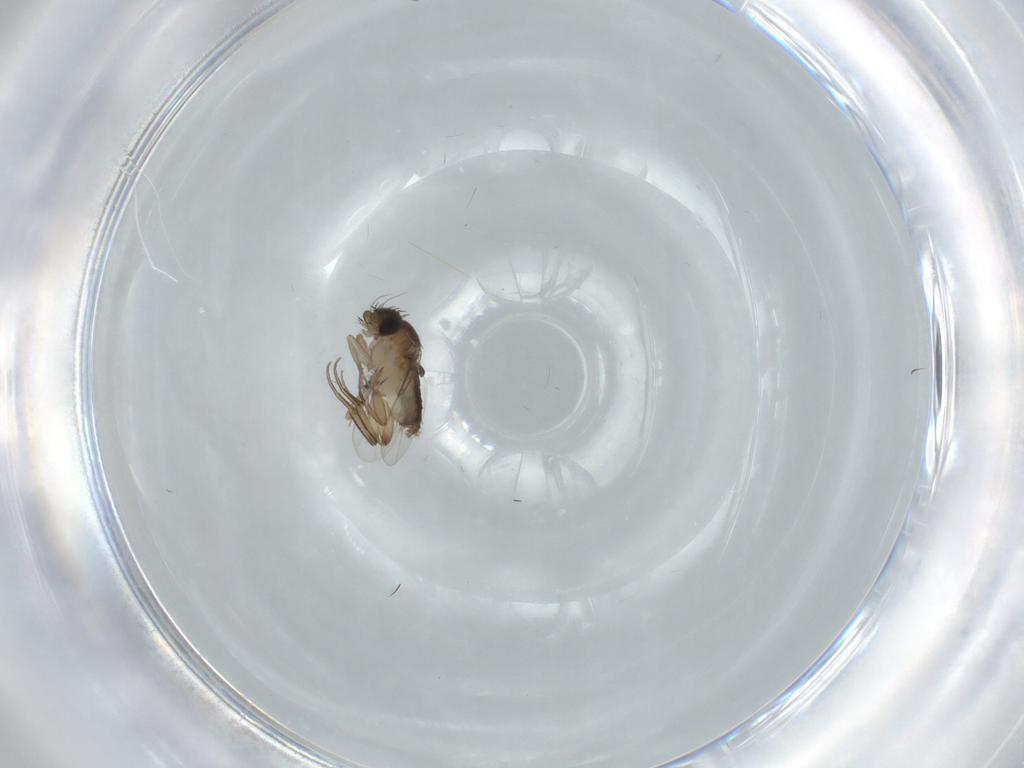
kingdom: Animalia
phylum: Arthropoda
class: Insecta
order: Diptera
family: Phoridae
